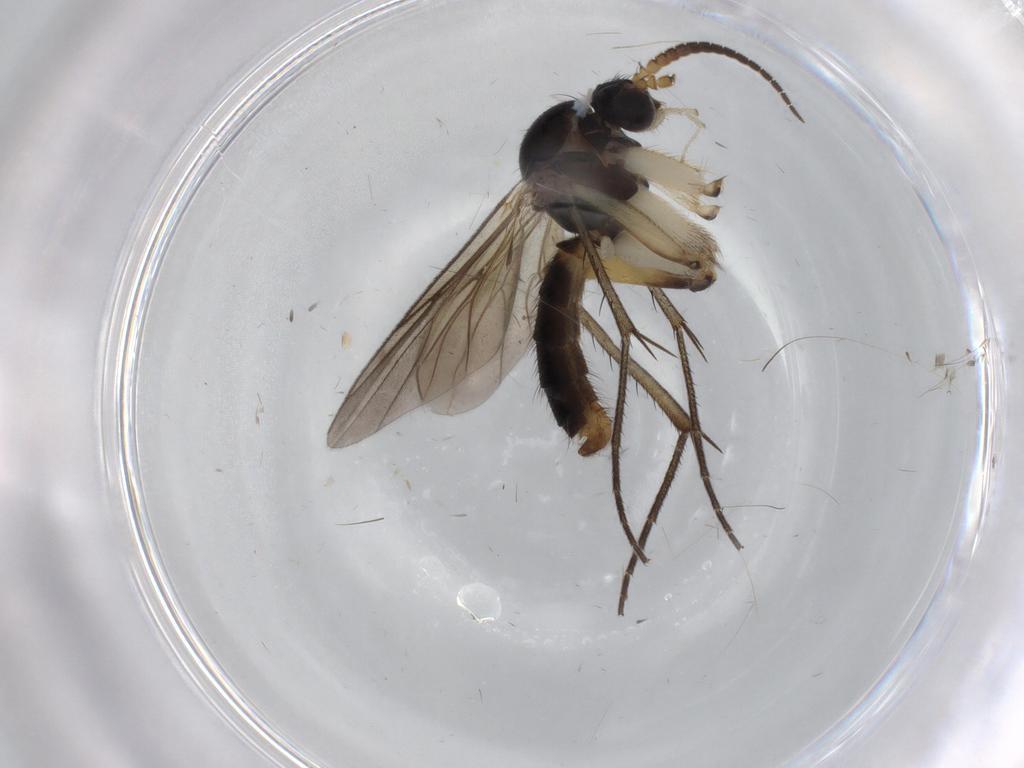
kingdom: Animalia
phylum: Arthropoda
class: Insecta
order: Diptera
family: Ceratopogonidae
